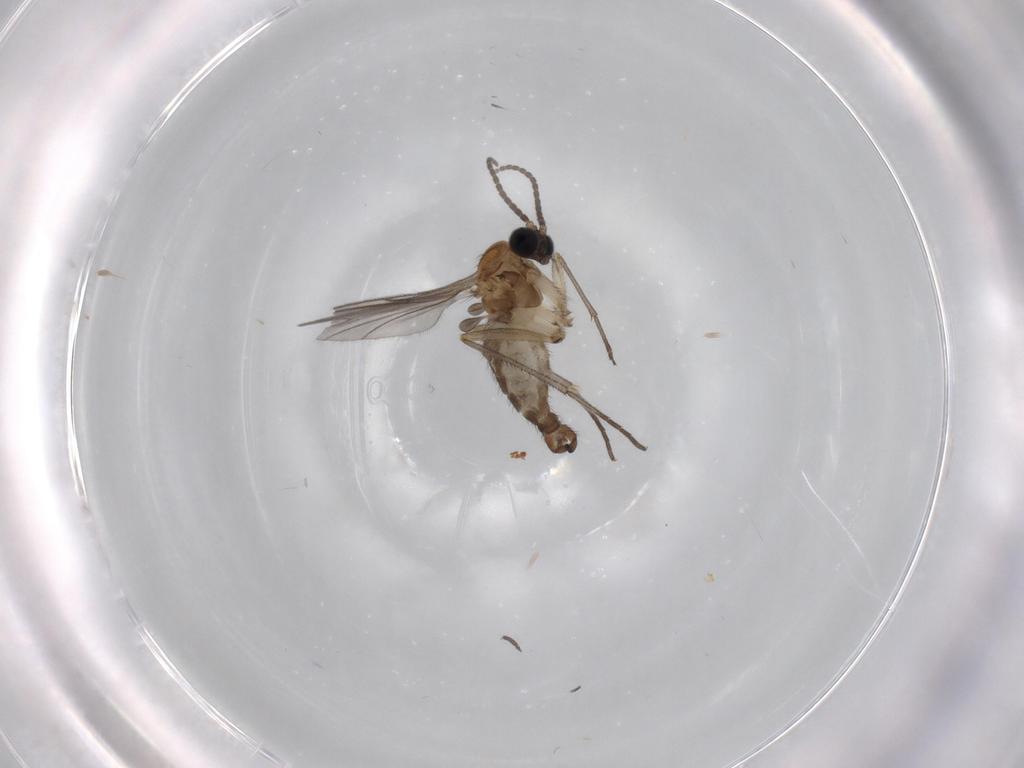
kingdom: Animalia
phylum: Arthropoda
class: Insecta
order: Diptera
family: Sciaridae
